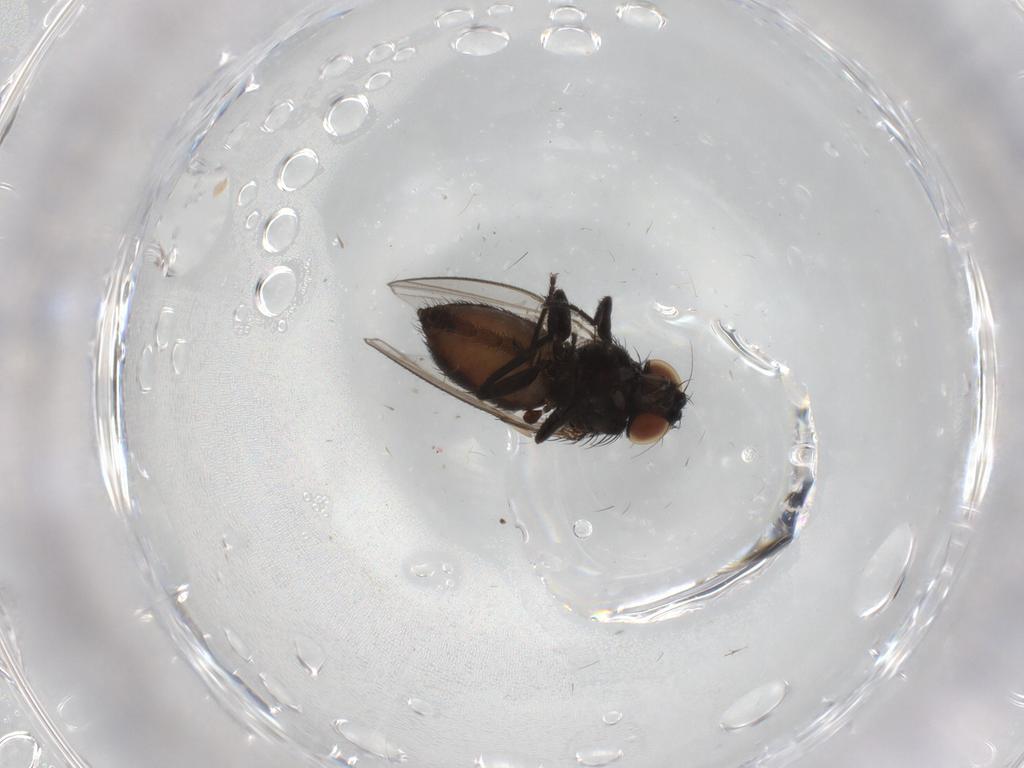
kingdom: Animalia
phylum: Arthropoda
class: Insecta
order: Diptera
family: Milichiidae
